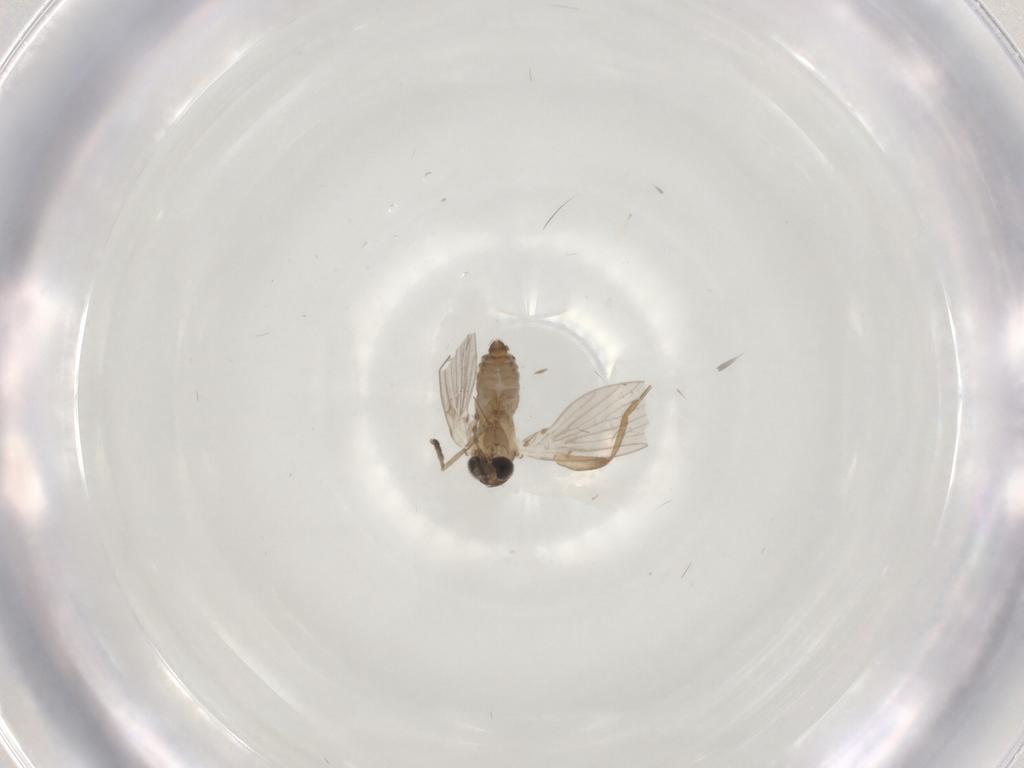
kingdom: Animalia
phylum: Arthropoda
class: Insecta
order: Diptera
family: Phoridae
